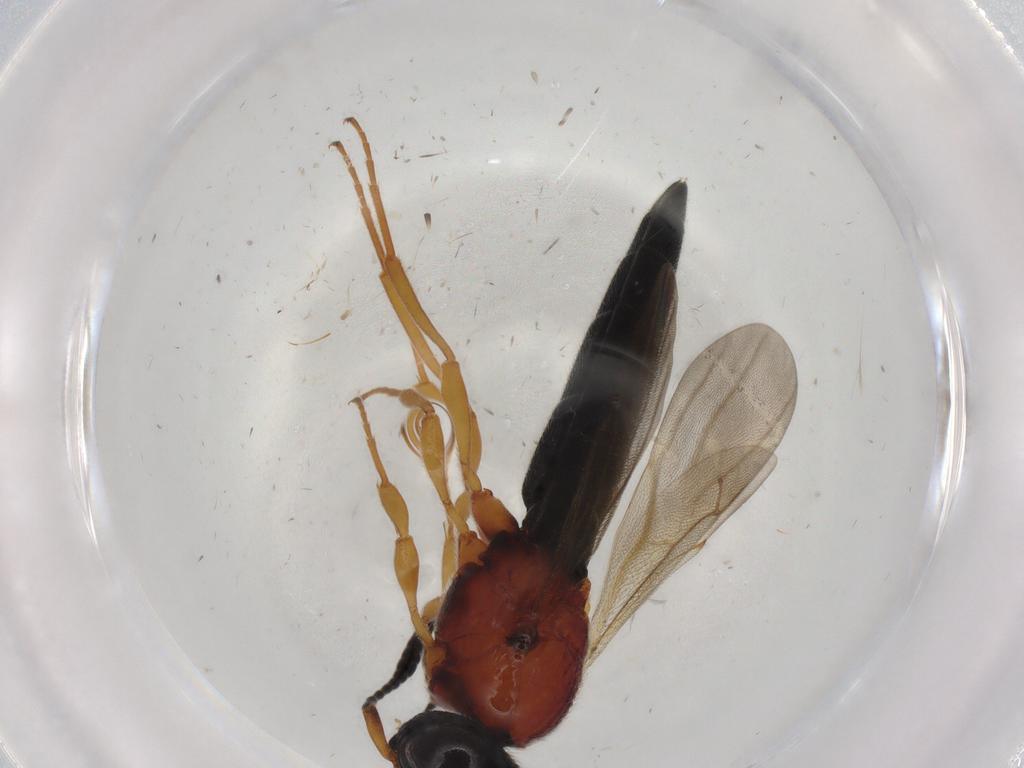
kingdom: Animalia
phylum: Arthropoda
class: Insecta
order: Hymenoptera
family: Bethylidae
